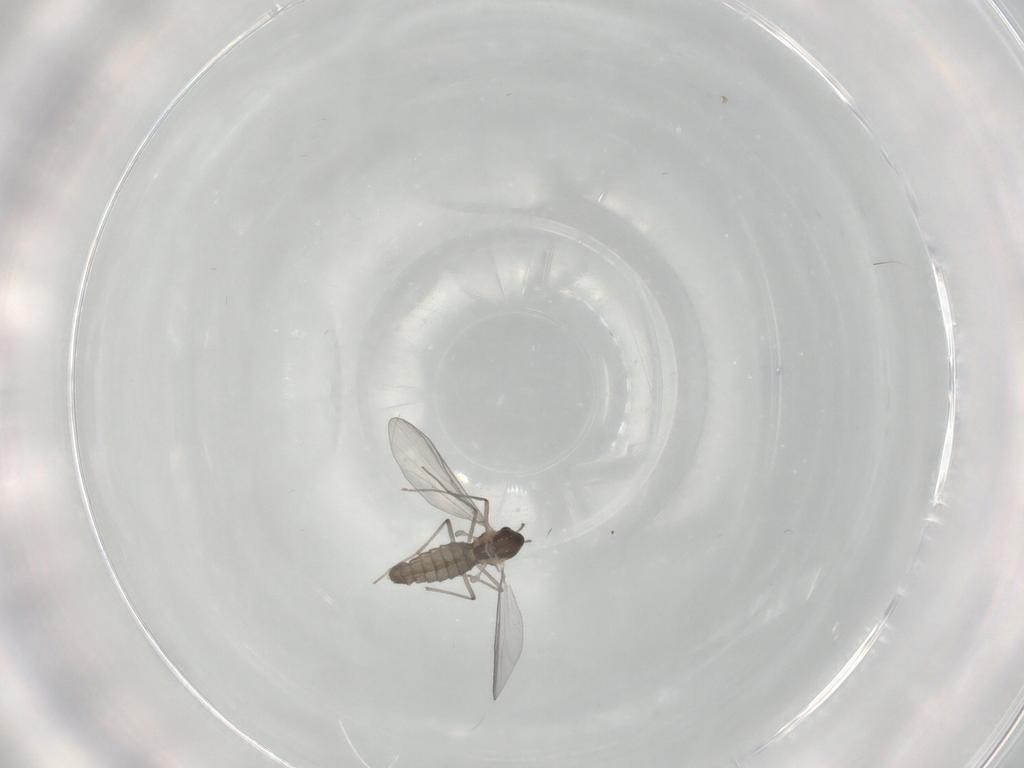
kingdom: Animalia
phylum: Arthropoda
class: Insecta
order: Diptera
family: Chironomidae
